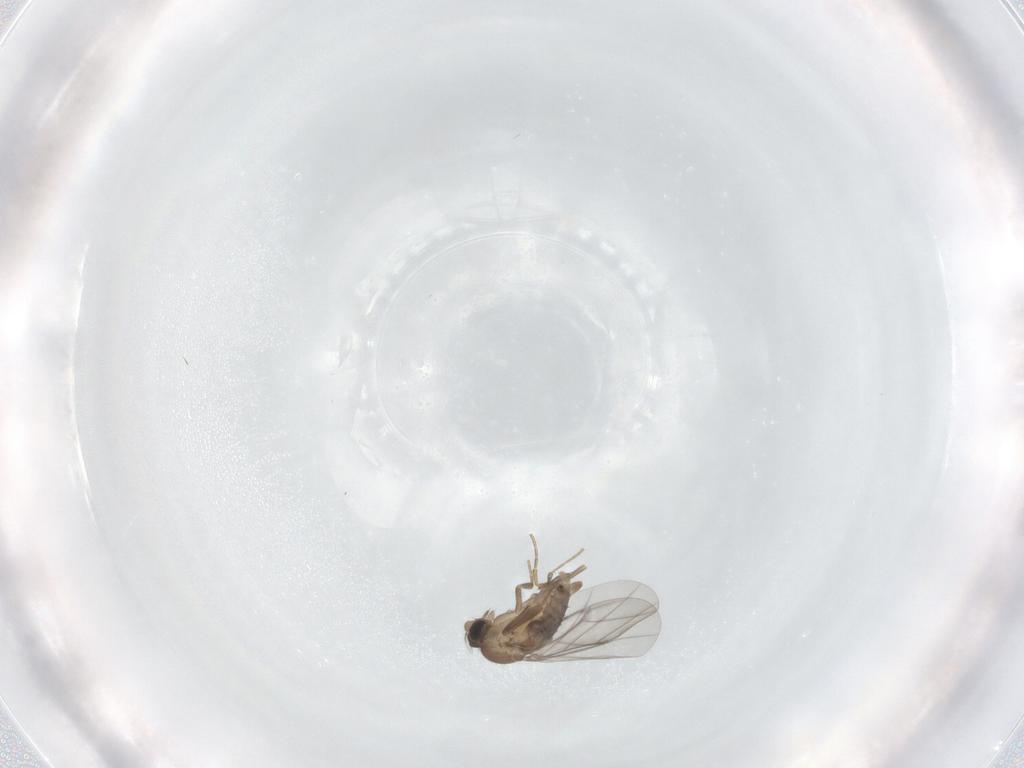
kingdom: Animalia
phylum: Arthropoda
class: Insecta
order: Diptera
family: Phoridae
